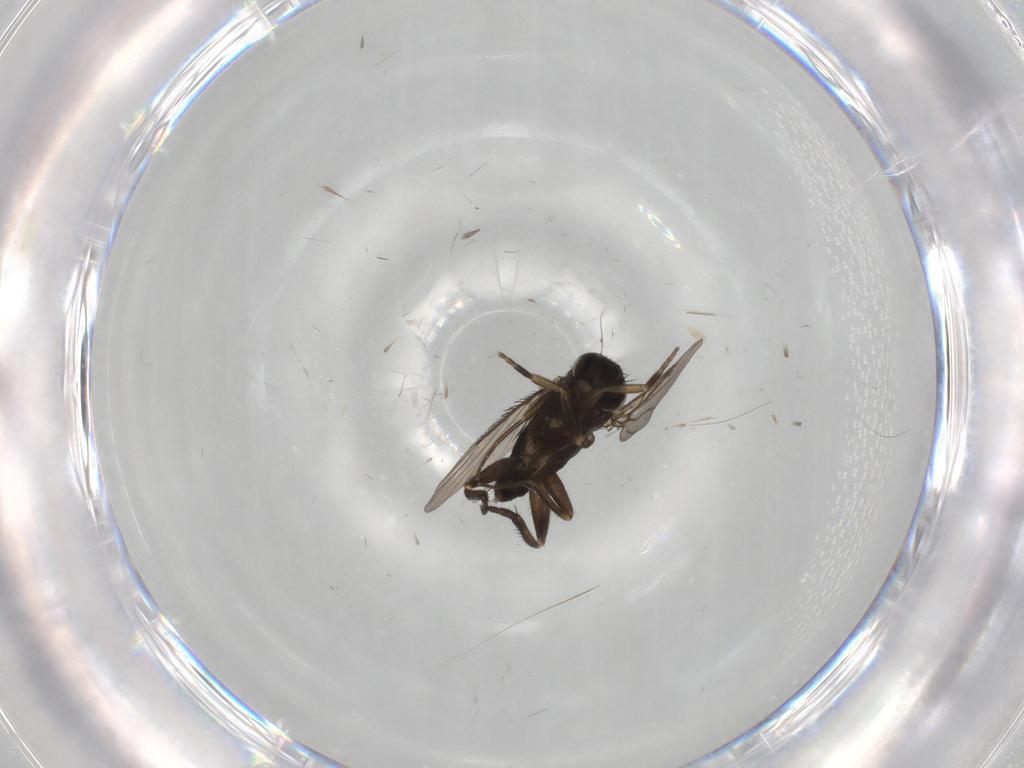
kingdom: Animalia
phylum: Arthropoda
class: Insecta
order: Diptera
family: Phoridae
